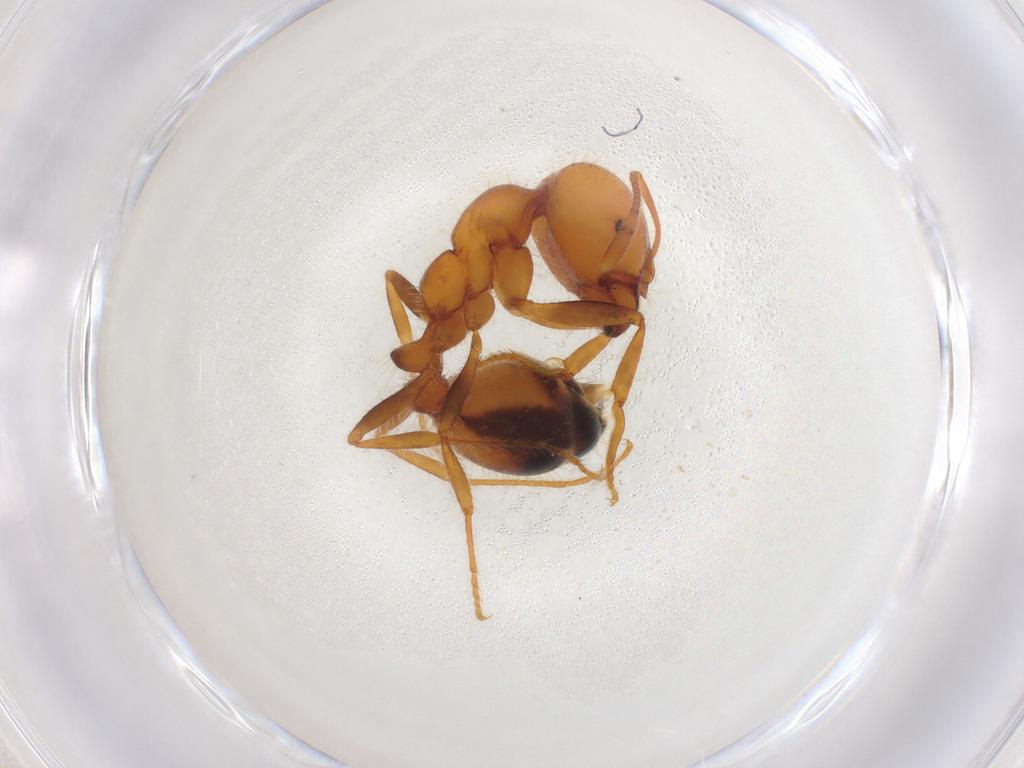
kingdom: Animalia
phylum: Arthropoda
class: Insecta
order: Hymenoptera
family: Formicidae
